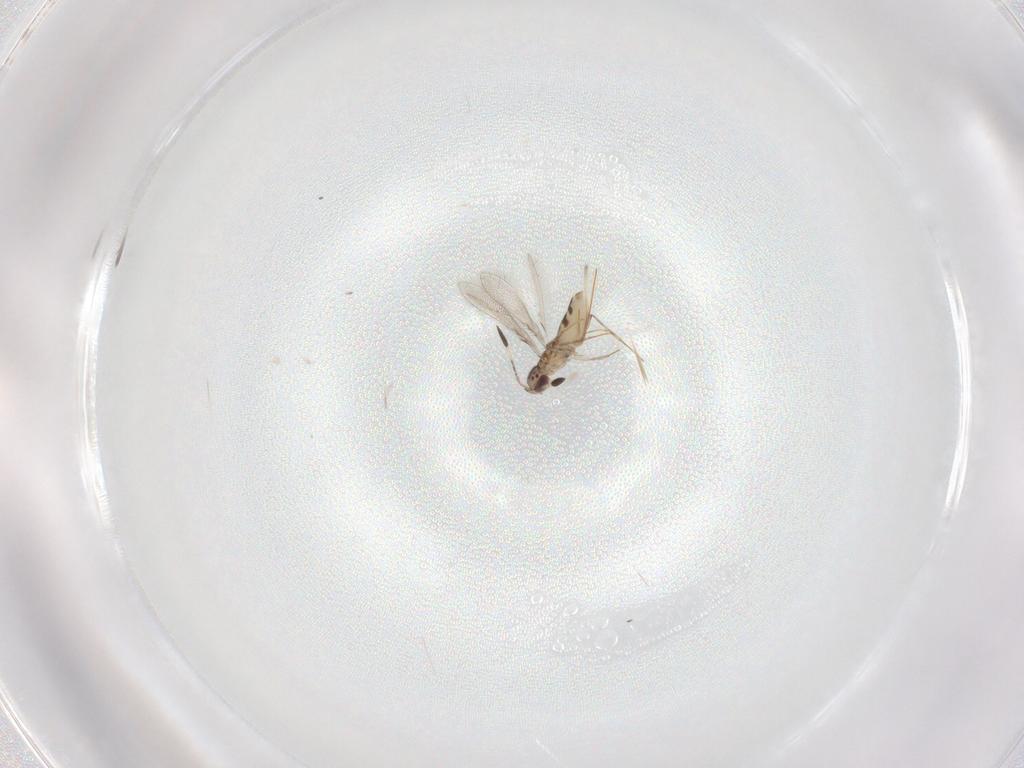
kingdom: Animalia
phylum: Arthropoda
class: Insecta
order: Hymenoptera
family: Mymaridae
